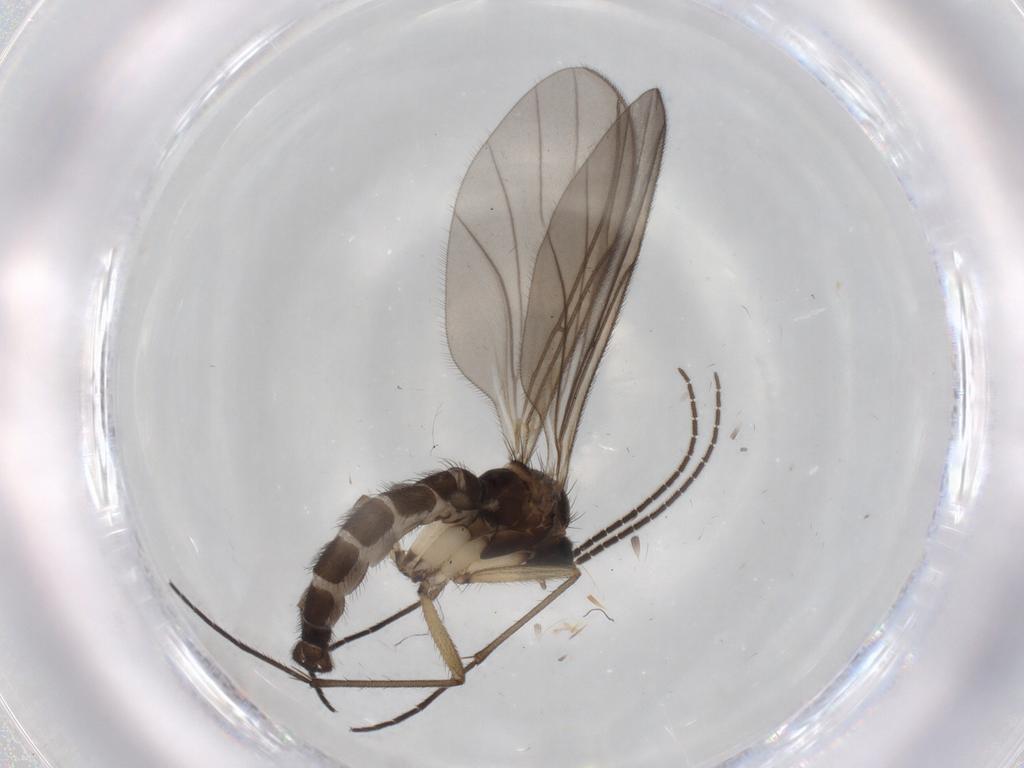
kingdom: Animalia
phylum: Arthropoda
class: Insecta
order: Diptera
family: Sciaridae
